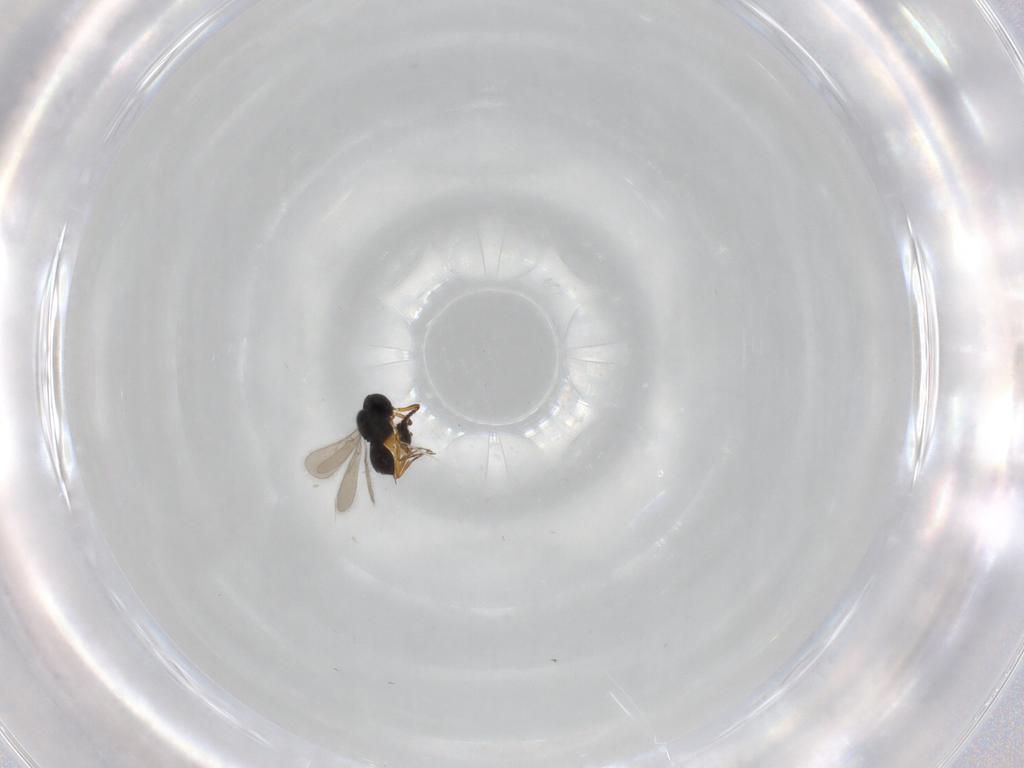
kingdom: Animalia
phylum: Arthropoda
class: Insecta
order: Hymenoptera
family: Scelionidae
